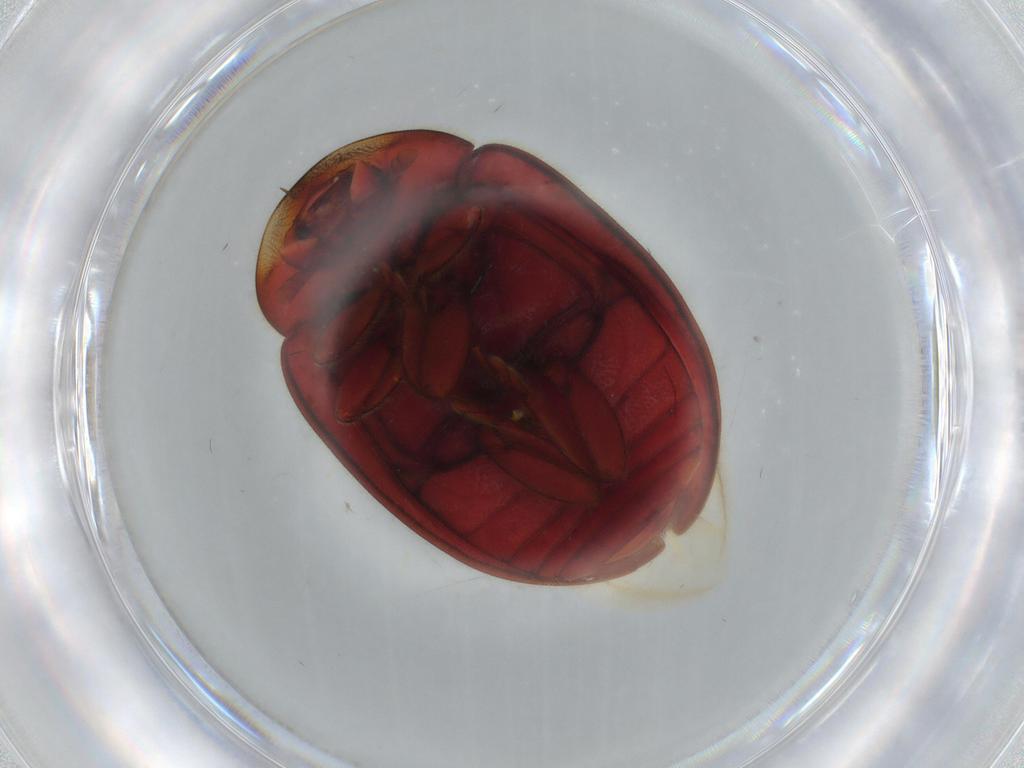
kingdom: Animalia
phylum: Arthropoda
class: Insecta
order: Coleoptera
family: Coccinellidae
